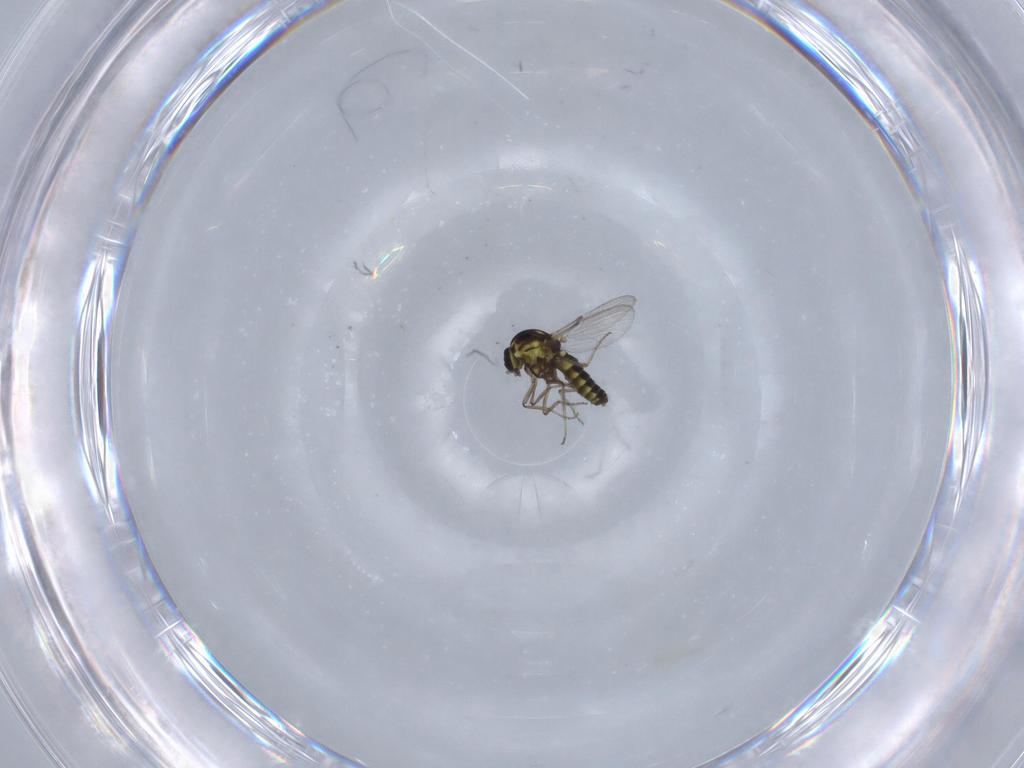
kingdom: Animalia
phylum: Arthropoda
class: Insecta
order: Diptera
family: Ceratopogonidae
